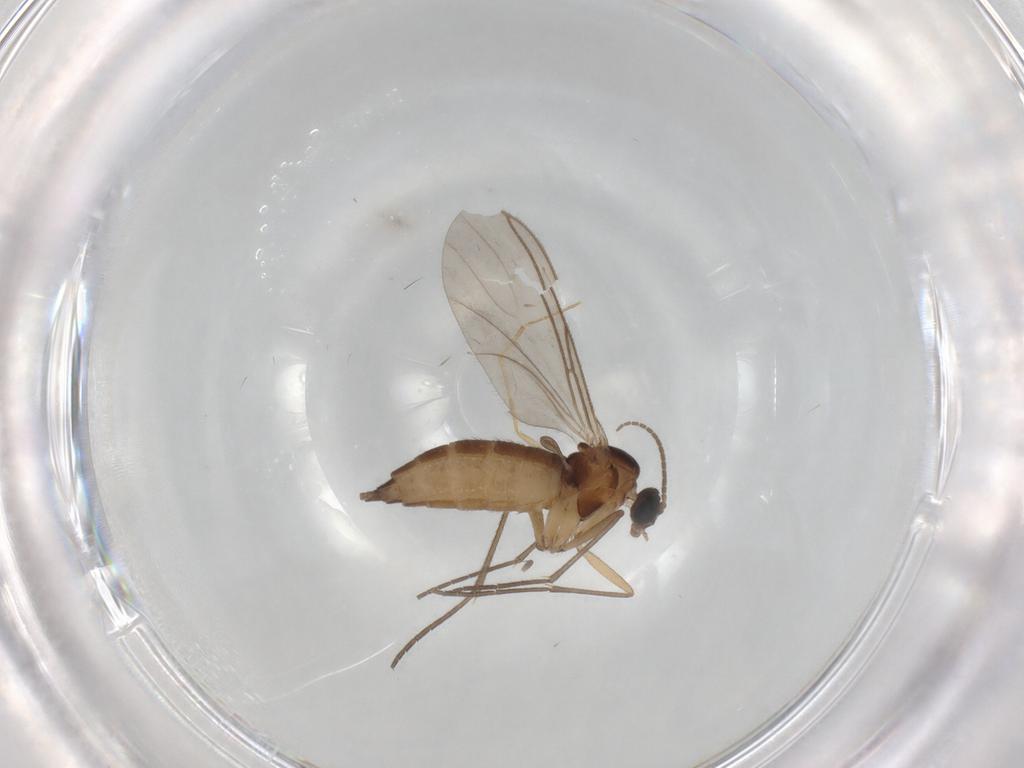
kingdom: Animalia
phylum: Arthropoda
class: Insecta
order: Diptera
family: Psychodidae
